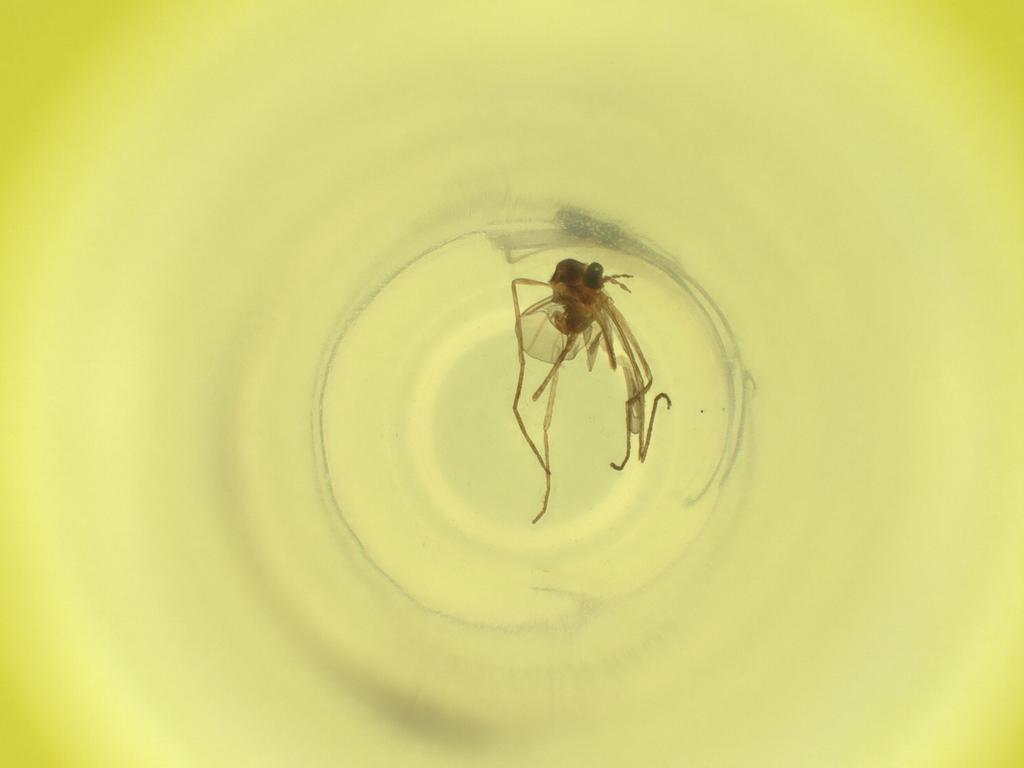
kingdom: Animalia
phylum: Arthropoda
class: Insecta
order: Diptera
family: Cecidomyiidae
